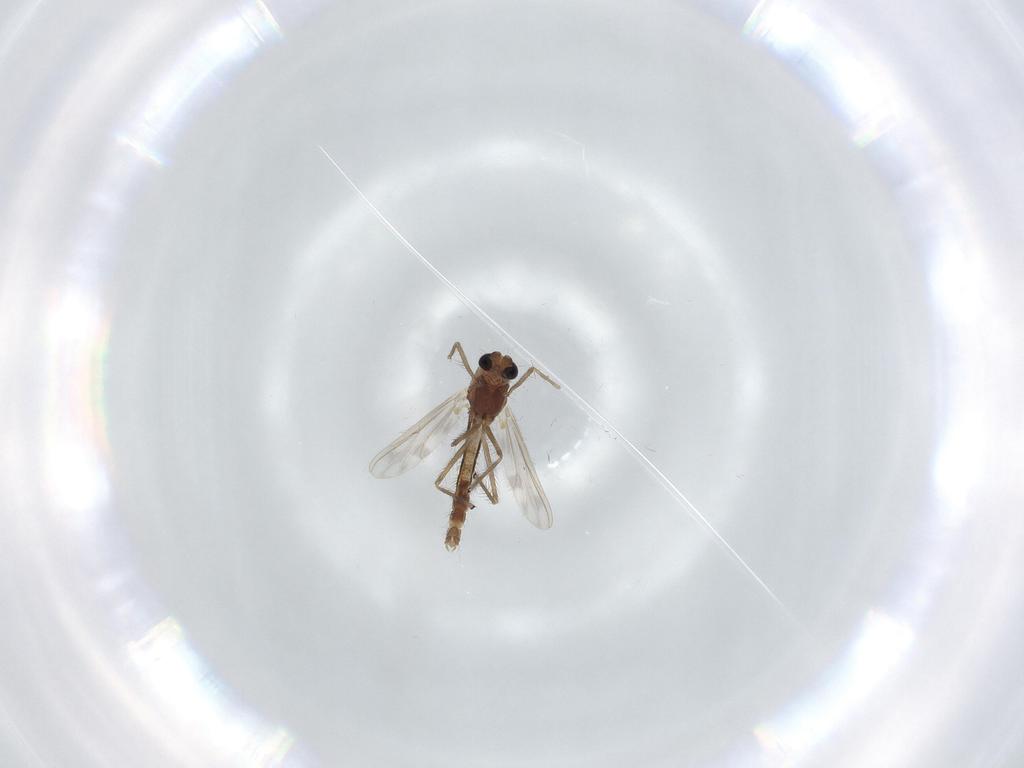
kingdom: Animalia
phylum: Arthropoda
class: Insecta
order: Diptera
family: Chironomidae
